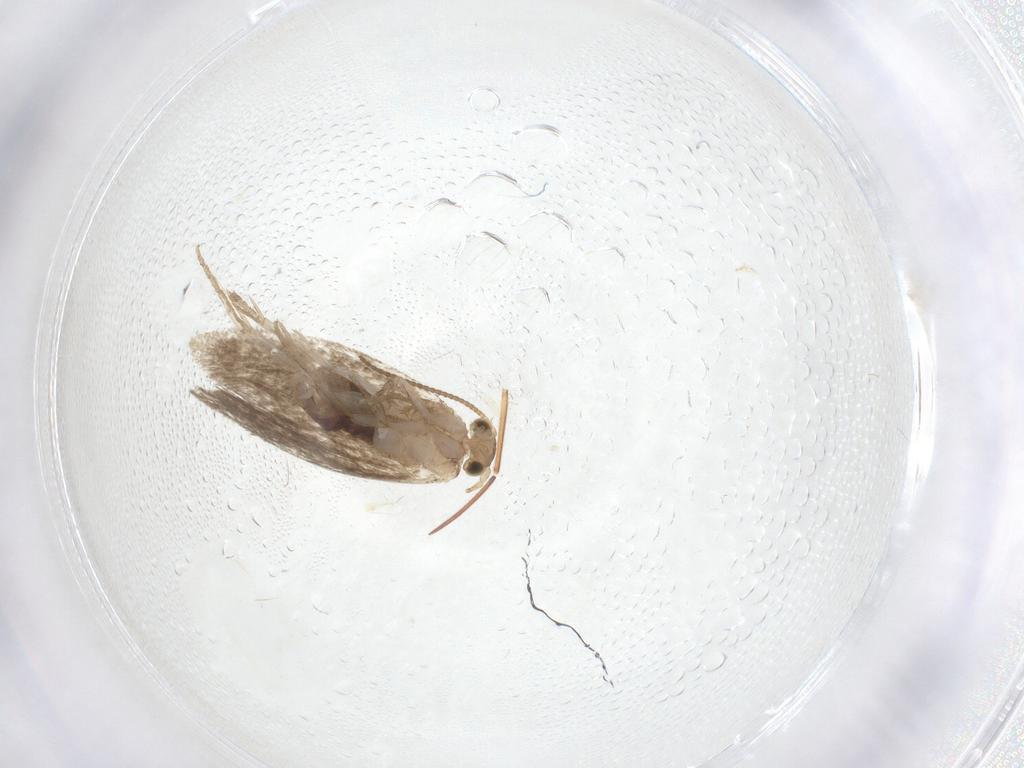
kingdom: Animalia
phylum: Arthropoda
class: Insecta
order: Lepidoptera
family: Dryadaulidae
